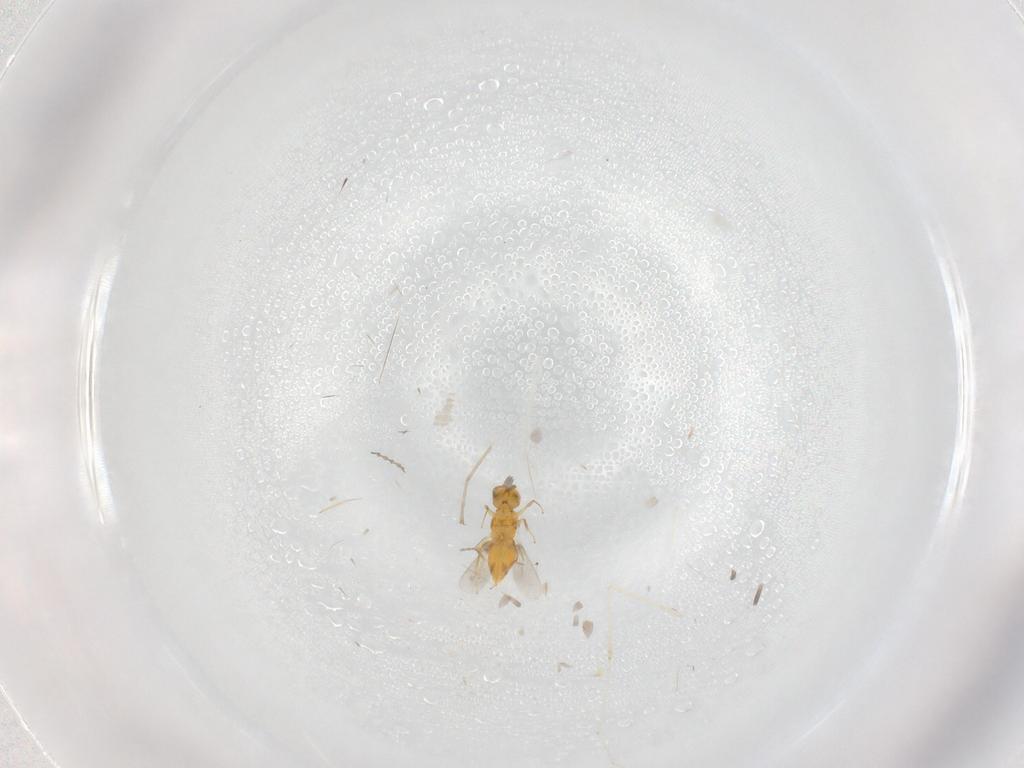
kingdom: Animalia
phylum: Arthropoda
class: Insecta
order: Hymenoptera
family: Aphelinidae
